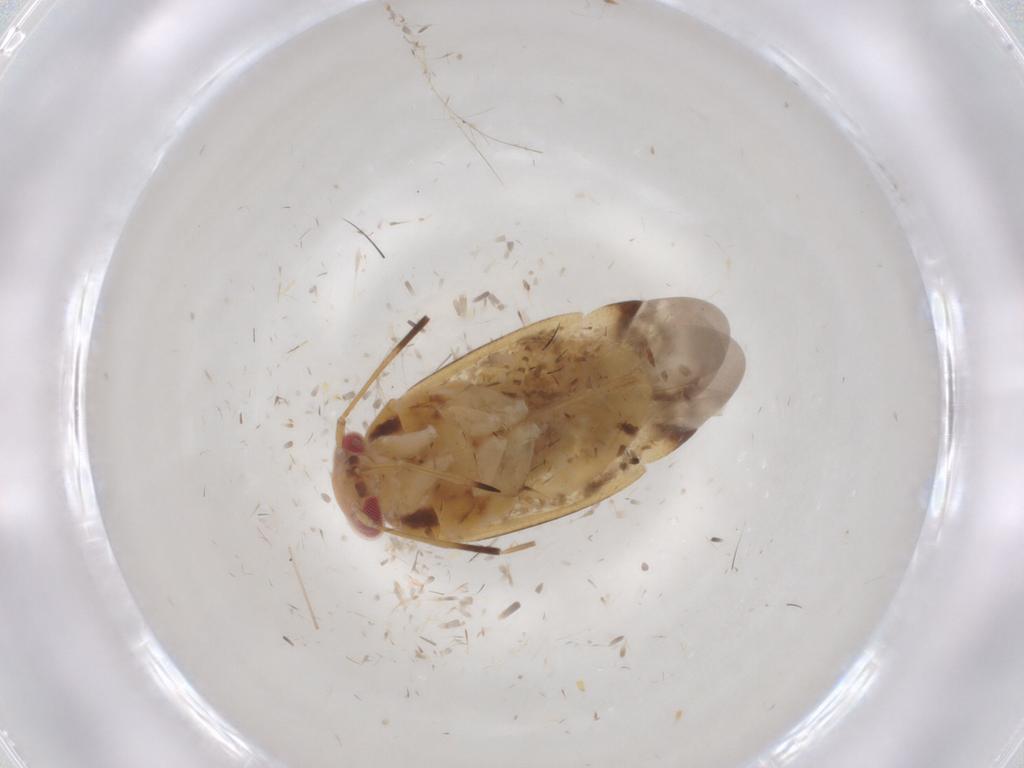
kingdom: Animalia
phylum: Arthropoda
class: Insecta
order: Hemiptera
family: Miridae
